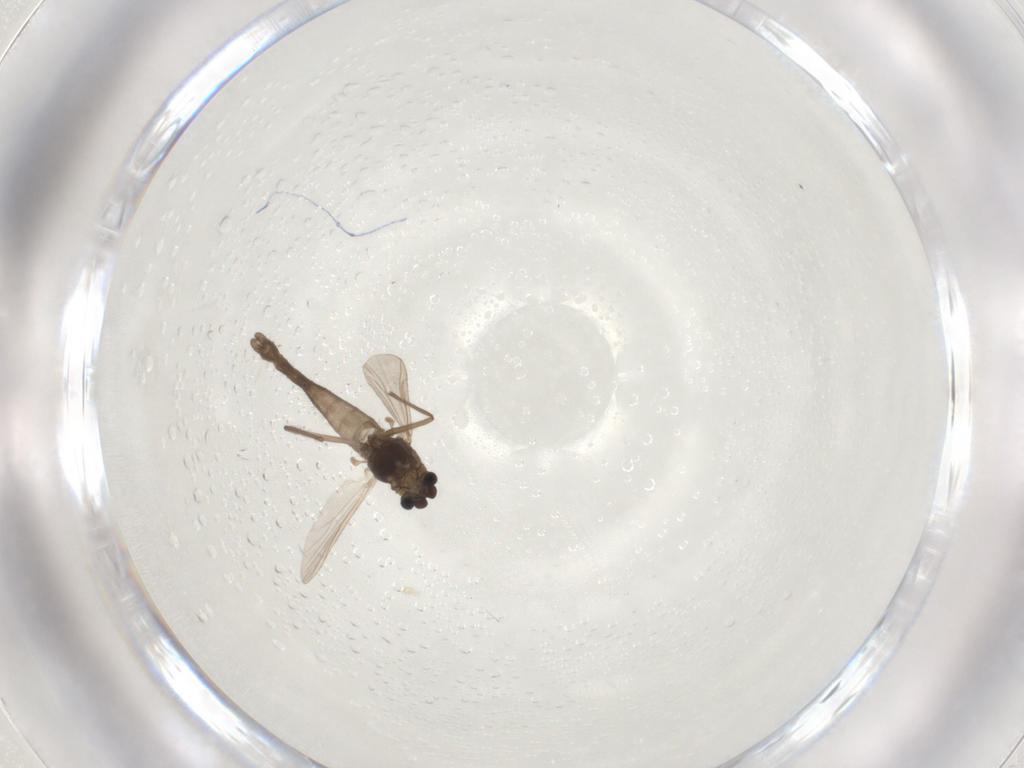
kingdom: Animalia
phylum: Arthropoda
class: Insecta
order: Diptera
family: Chironomidae
